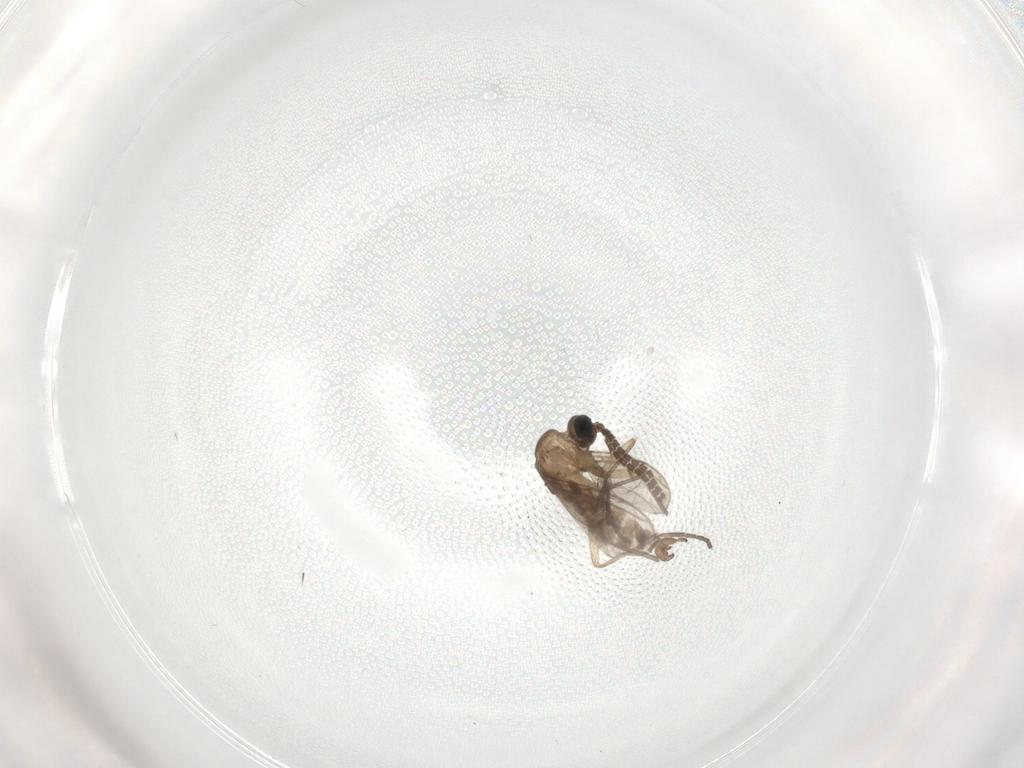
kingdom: Animalia
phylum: Arthropoda
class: Insecta
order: Diptera
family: Sciaridae
